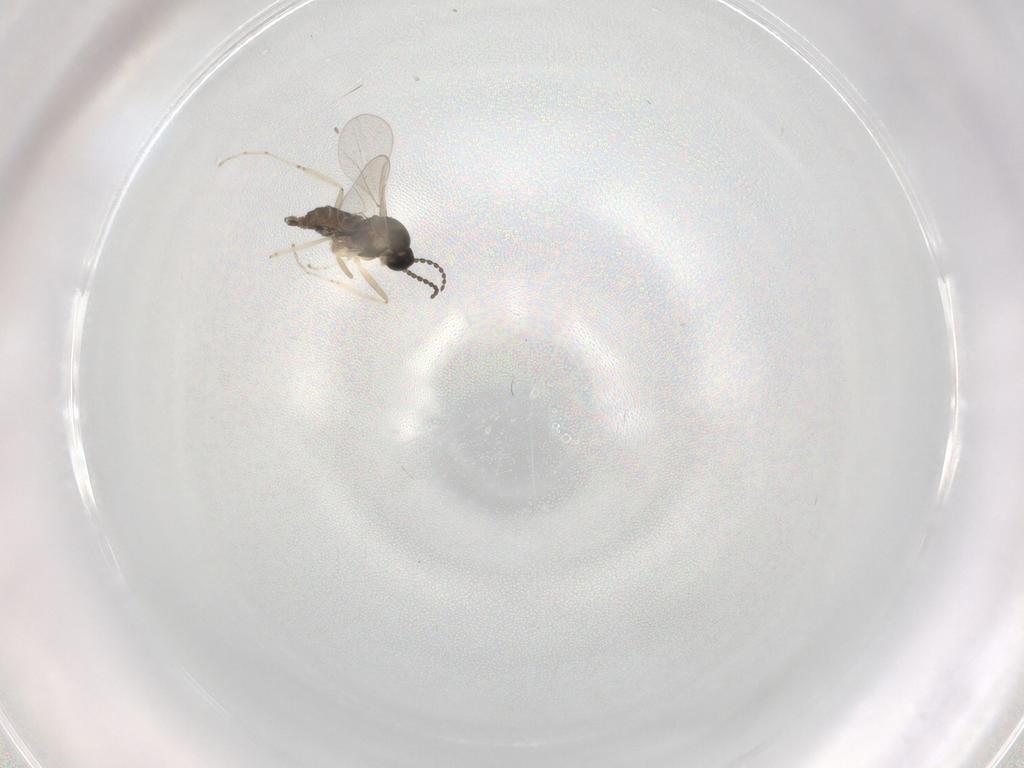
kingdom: Animalia
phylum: Arthropoda
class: Insecta
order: Diptera
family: Cecidomyiidae
